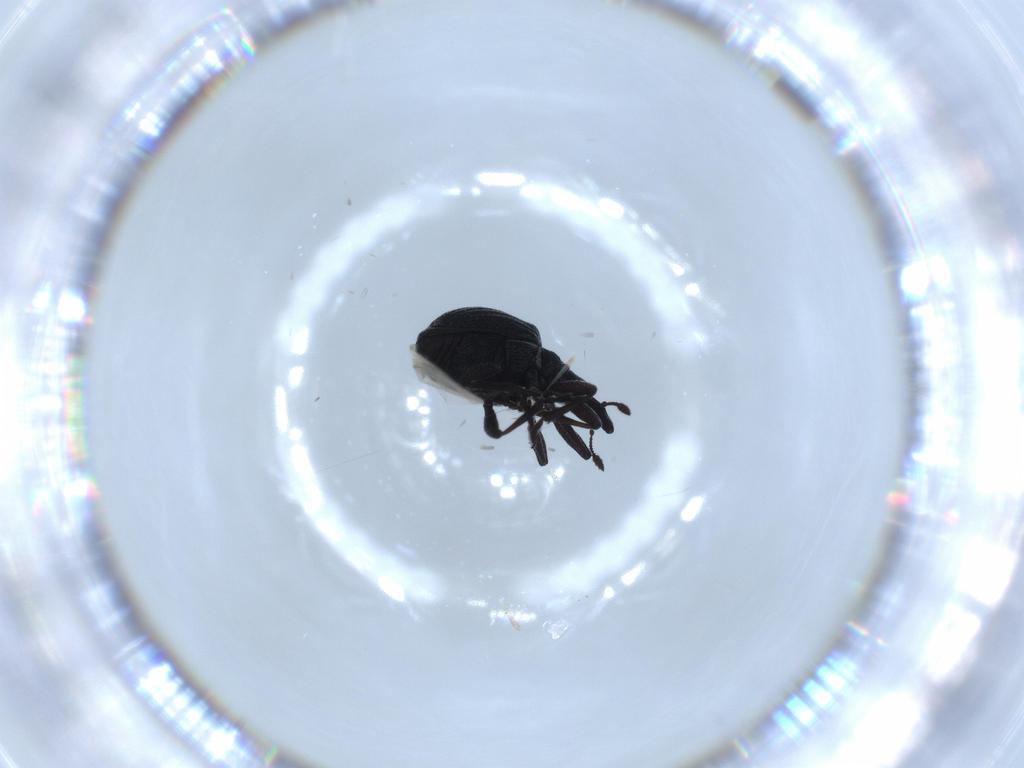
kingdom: Animalia
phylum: Arthropoda
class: Insecta
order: Coleoptera
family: Brentidae
